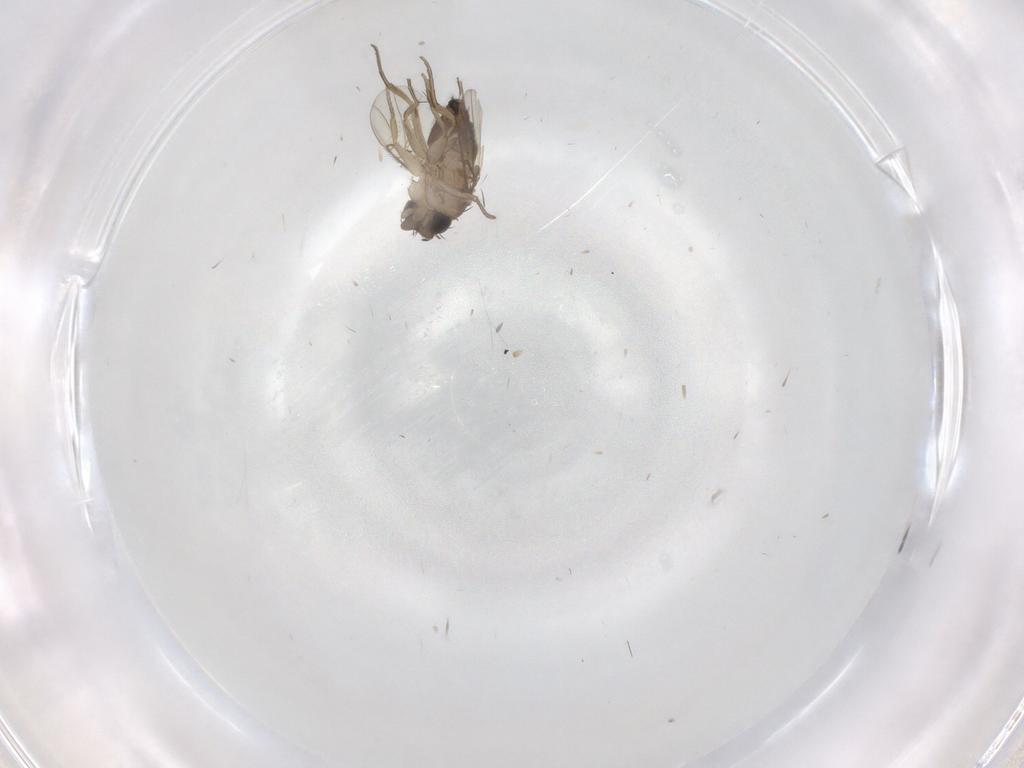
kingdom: Animalia
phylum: Arthropoda
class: Insecta
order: Diptera
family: Phoridae
